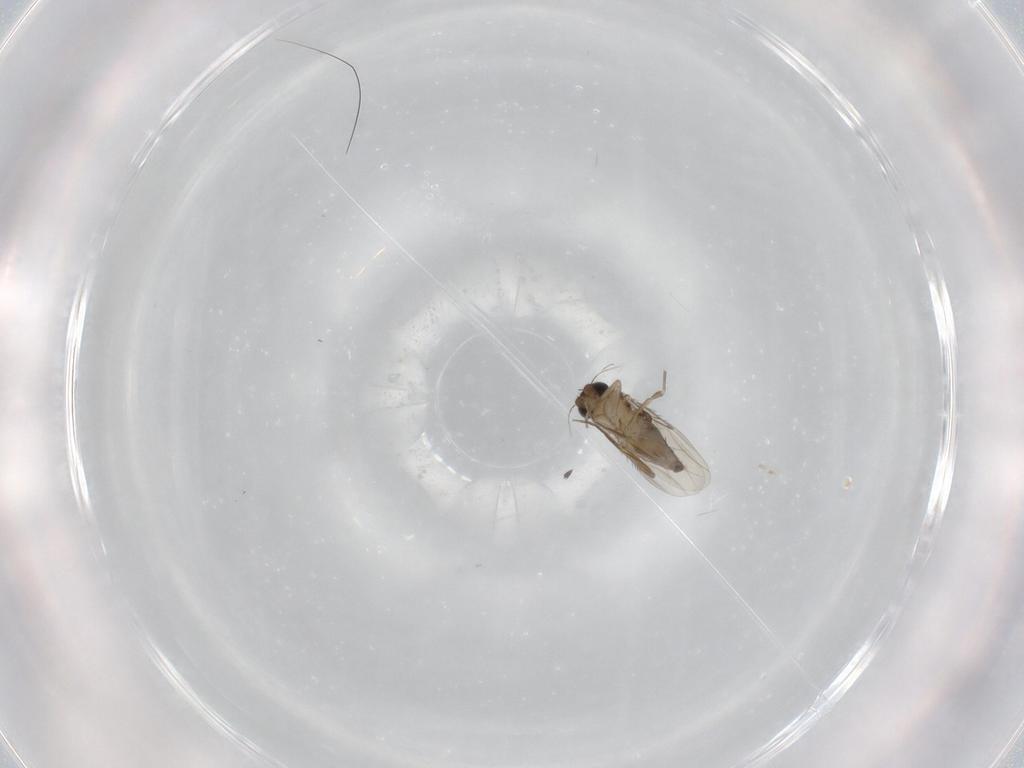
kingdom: Animalia
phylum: Arthropoda
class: Insecta
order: Diptera
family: Phoridae
